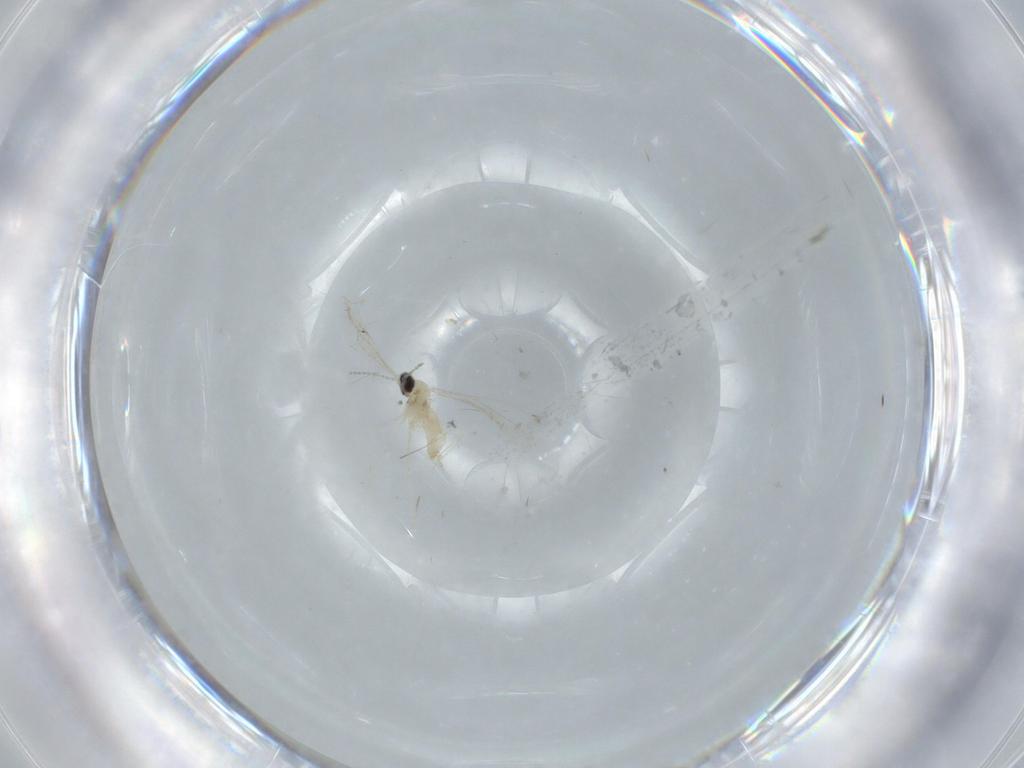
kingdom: Animalia
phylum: Arthropoda
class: Insecta
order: Diptera
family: Cecidomyiidae
